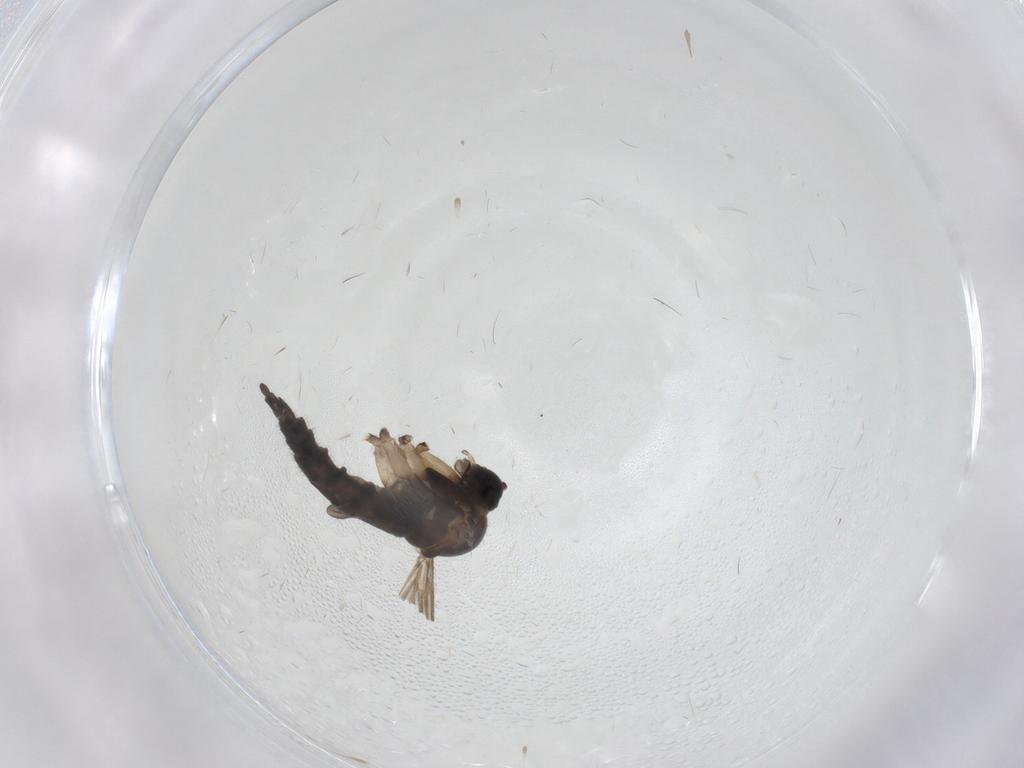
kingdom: Animalia
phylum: Arthropoda
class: Insecta
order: Diptera
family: Sciaridae
